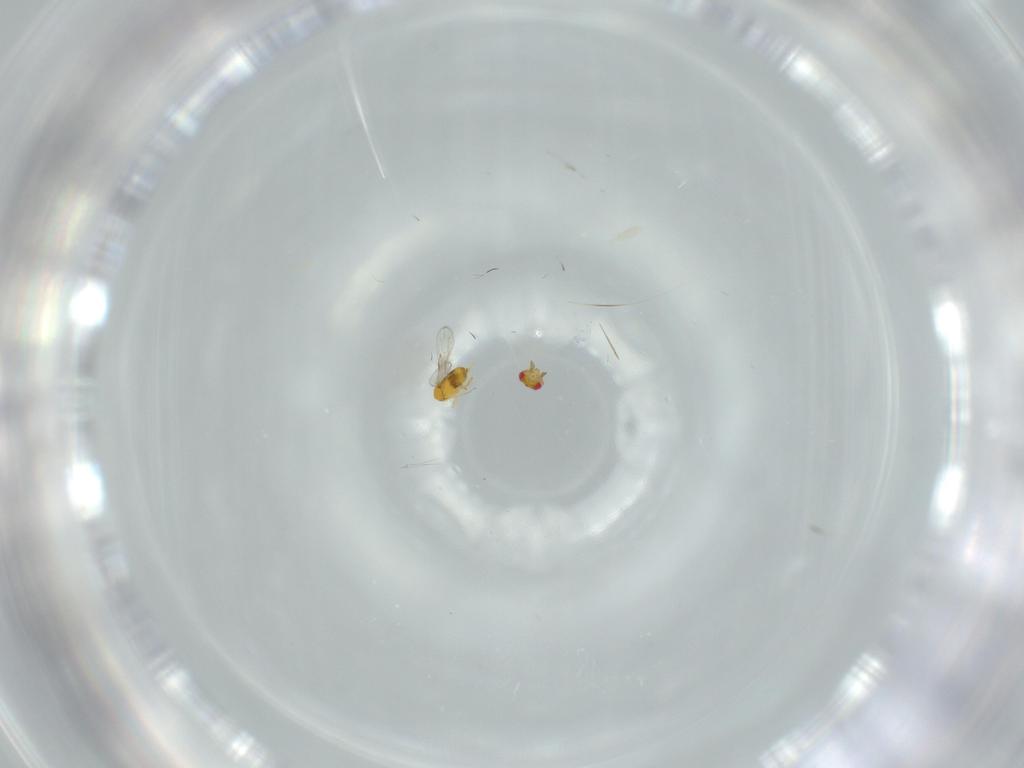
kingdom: Animalia
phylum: Arthropoda
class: Insecta
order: Hymenoptera
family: Trichogrammatidae
